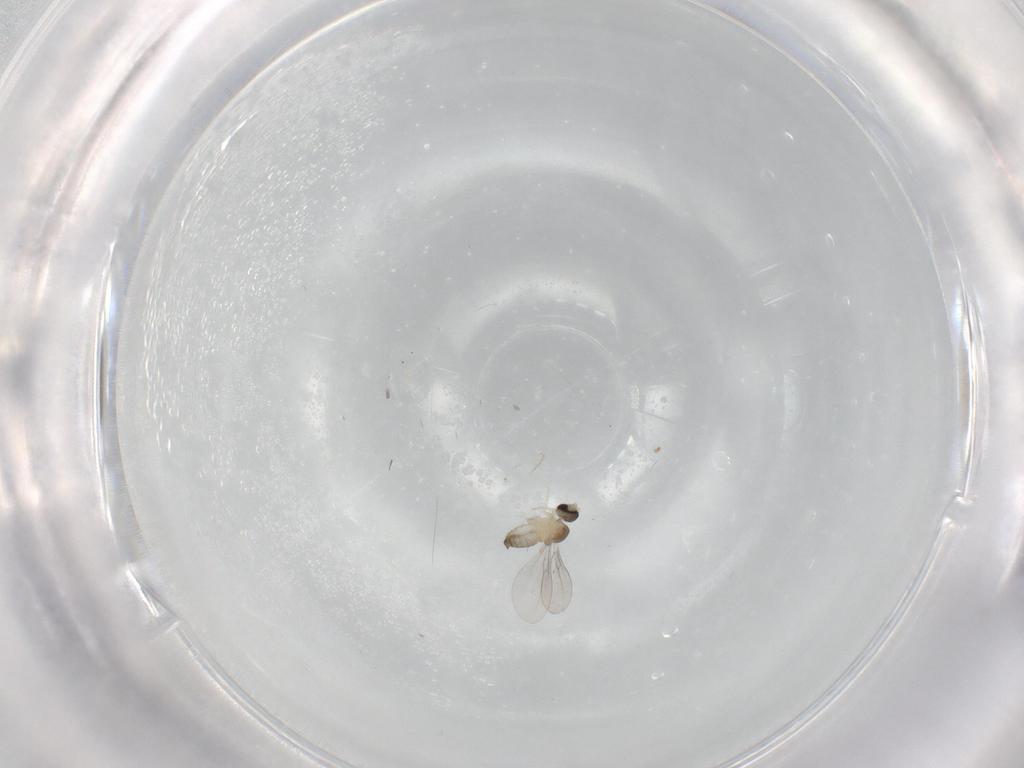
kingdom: Animalia
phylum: Arthropoda
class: Insecta
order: Diptera
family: Cecidomyiidae
